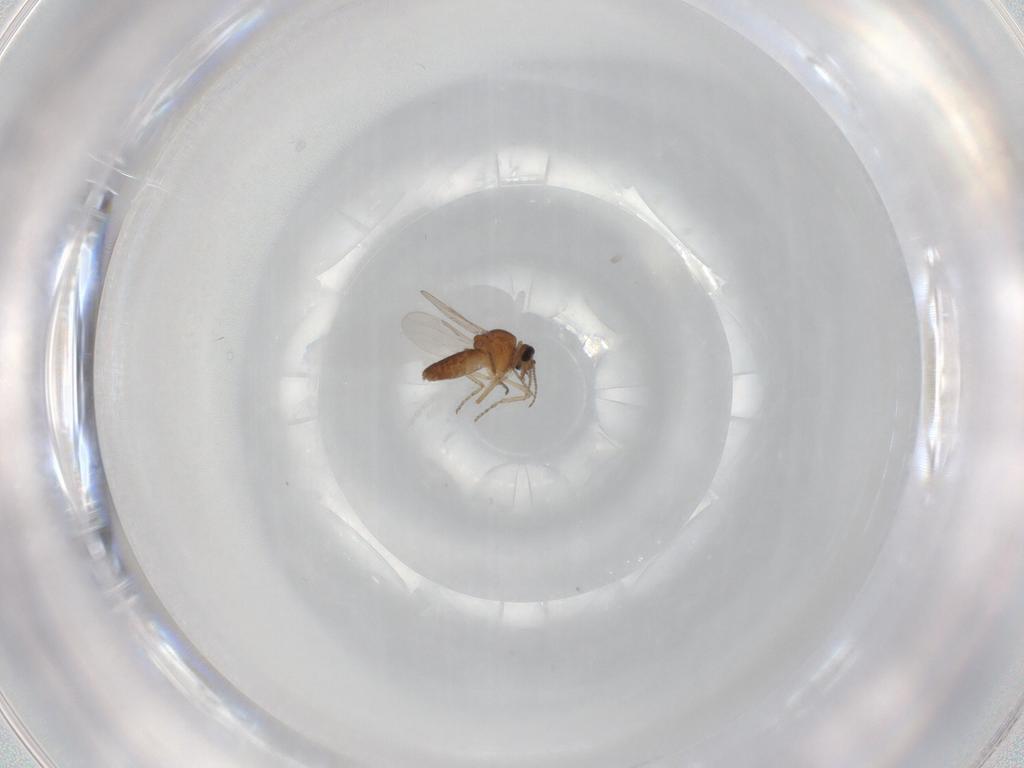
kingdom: Animalia
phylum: Arthropoda
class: Insecta
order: Diptera
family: Ceratopogonidae
